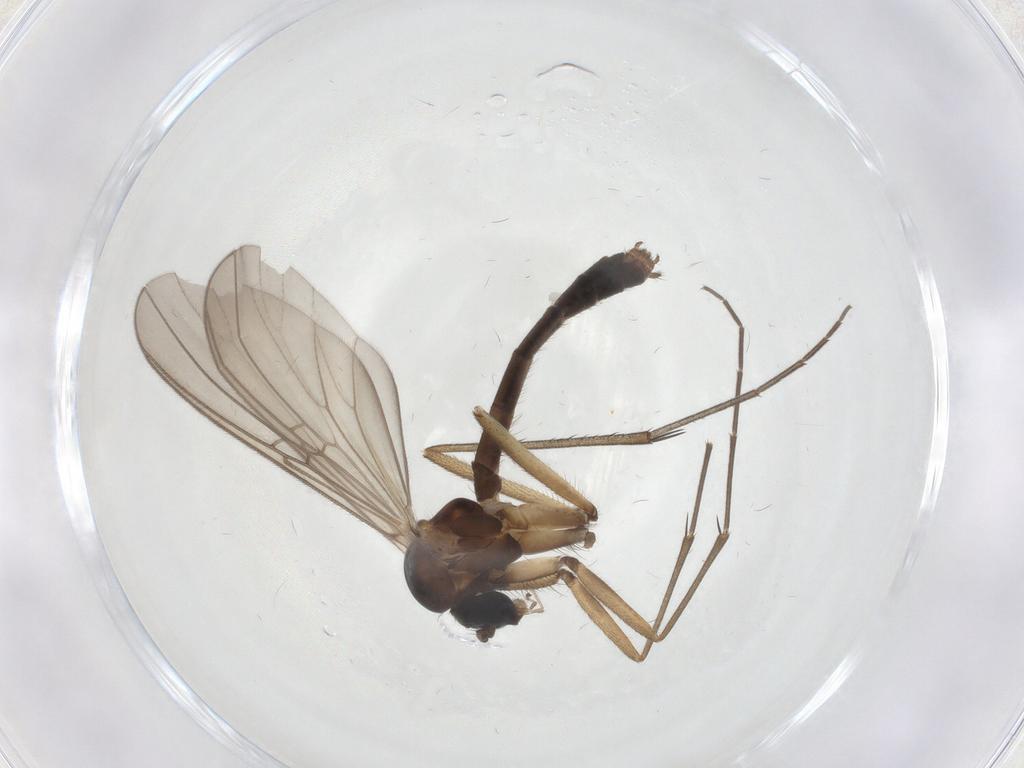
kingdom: Animalia
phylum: Arthropoda
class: Insecta
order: Diptera
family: Mycetophilidae
